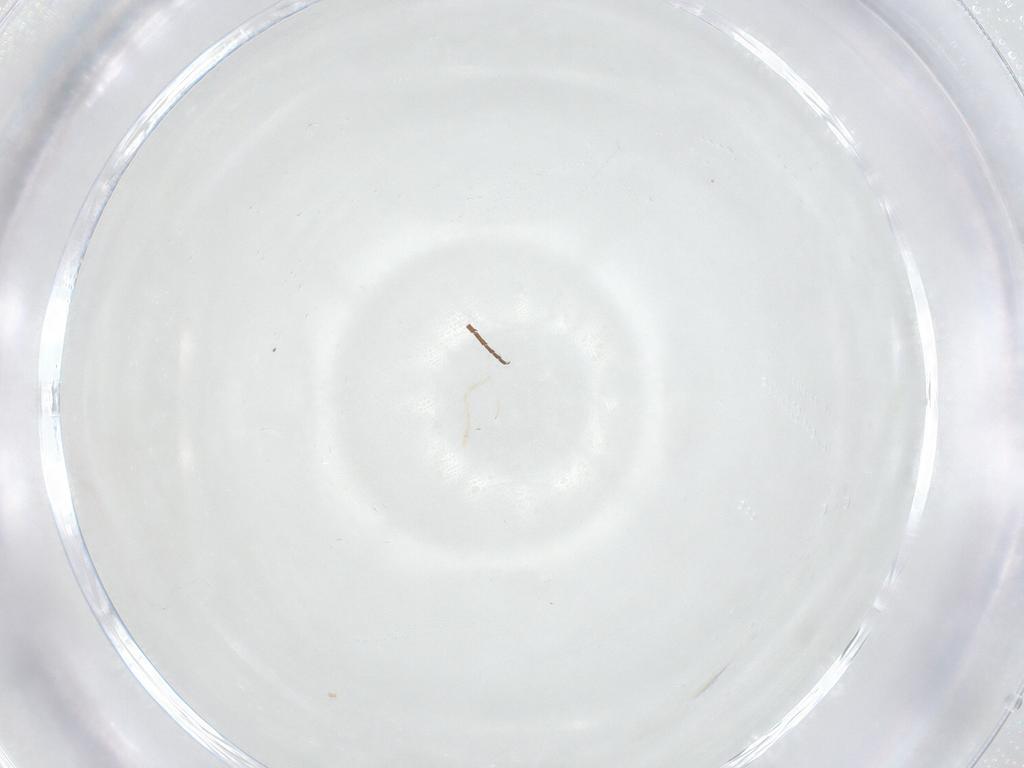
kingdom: Animalia
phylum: Arthropoda
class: Insecta
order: Diptera
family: Carnidae
